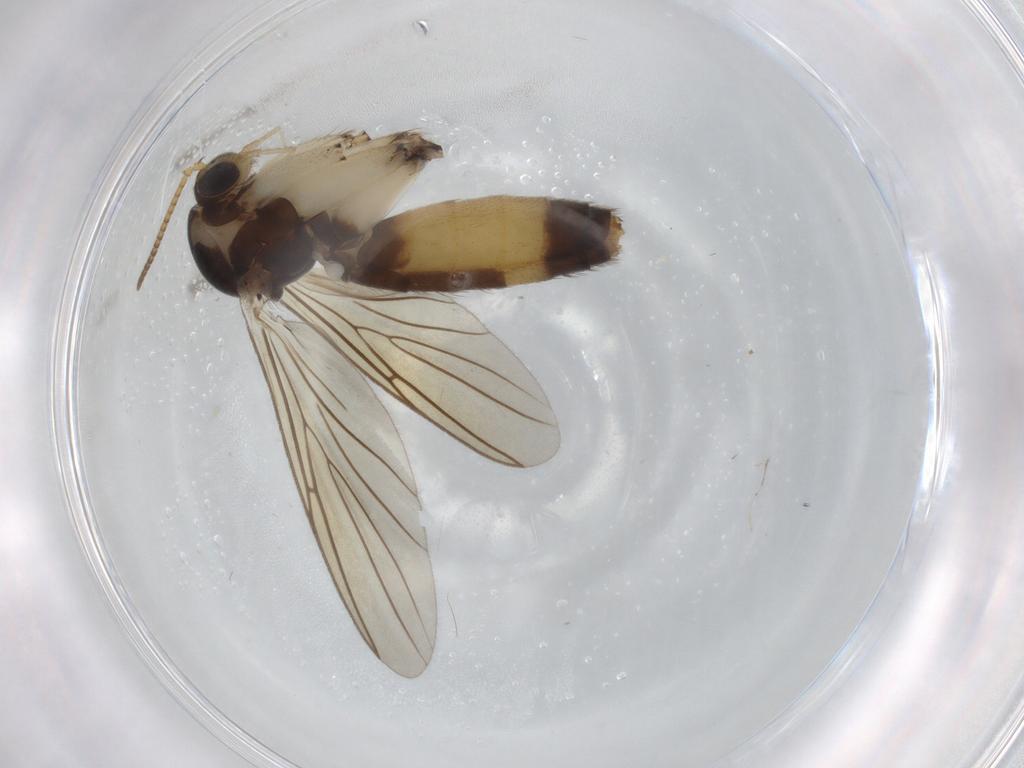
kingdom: Animalia
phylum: Arthropoda
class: Insecta
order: Diptera
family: Mycetophilidae
